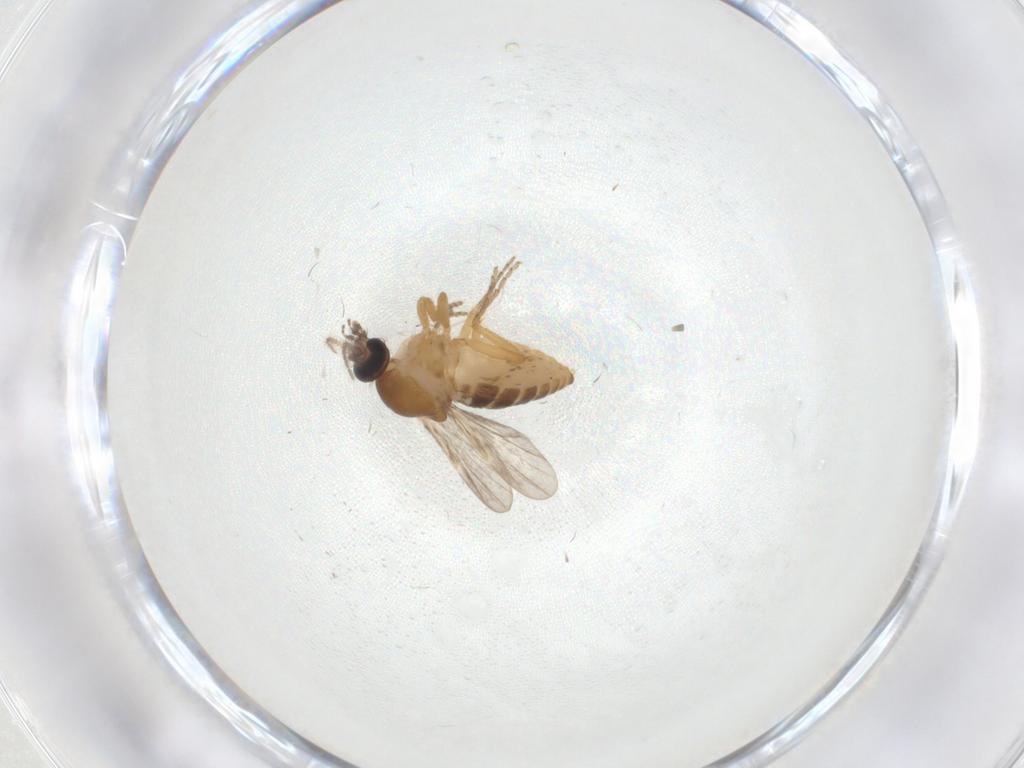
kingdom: Animalia
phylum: Arthropoda
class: Insecta
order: Diptera
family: Ceratopogonidae
